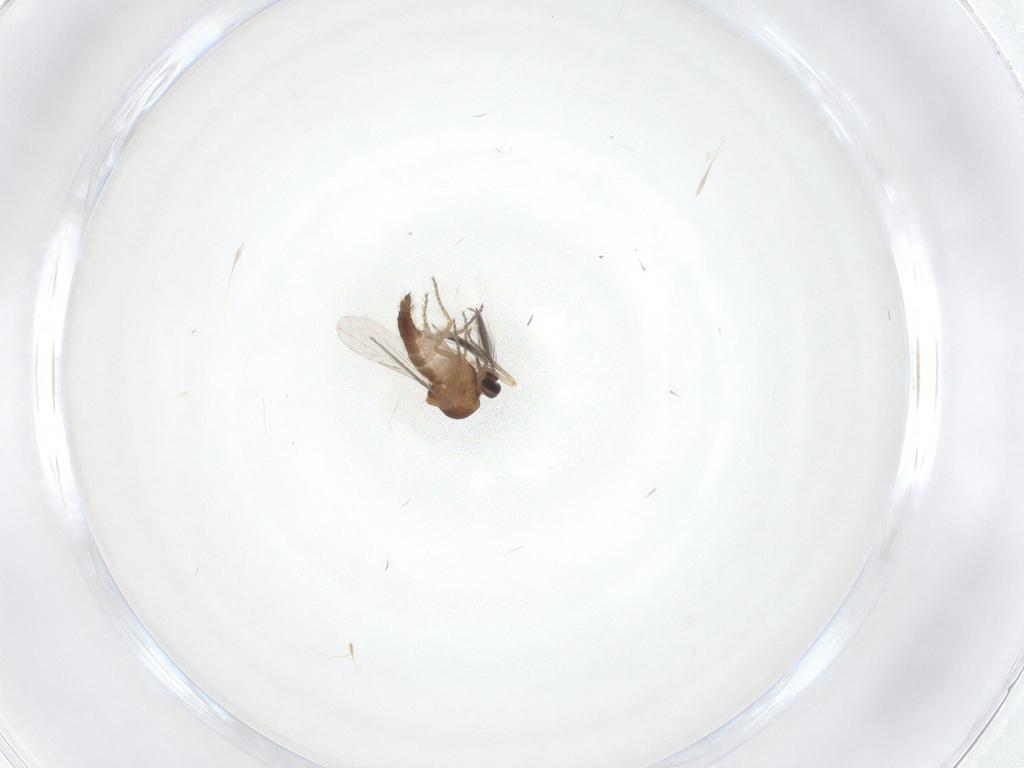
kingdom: Animalia
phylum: Arthropoda
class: Insecta
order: Diptera
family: Ceratopogonidae
